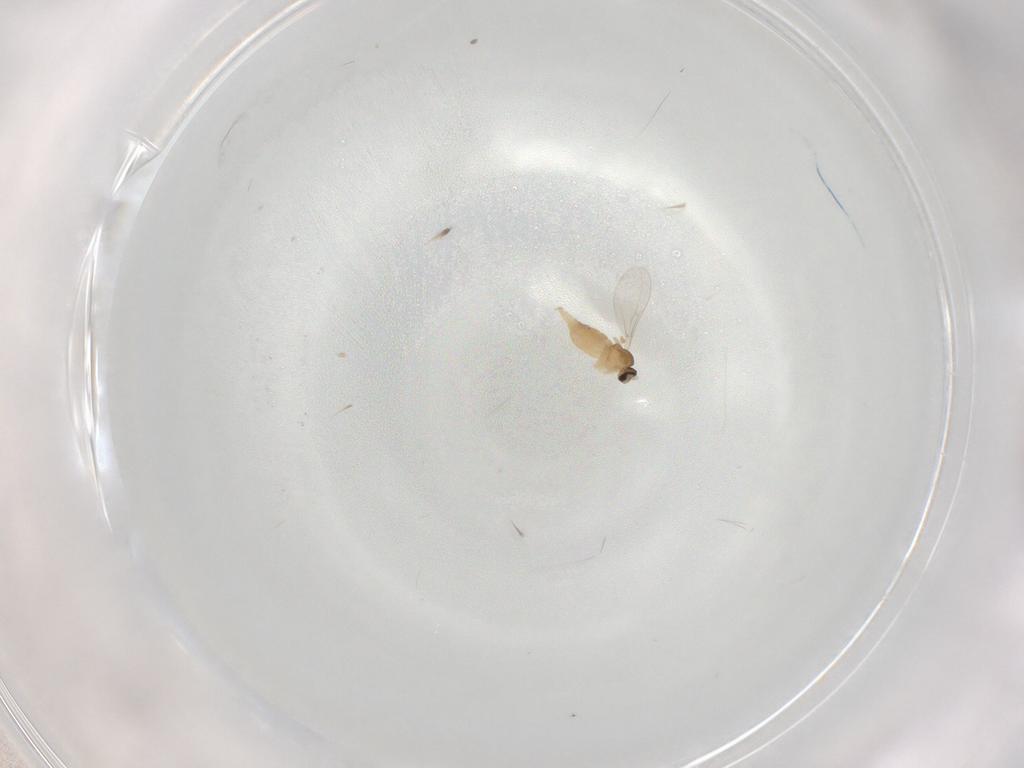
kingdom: Animalia
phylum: Arthropoda
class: Insecta
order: Diptera
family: Cecidomyiidae
